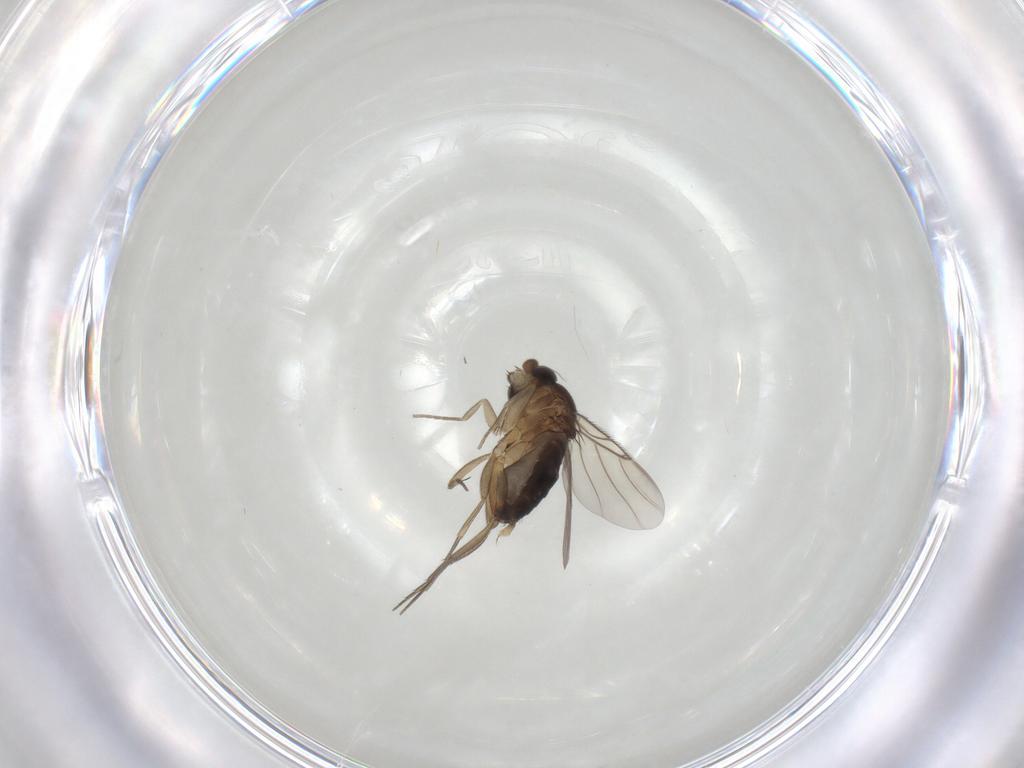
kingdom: Animalia
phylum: Arthropoda
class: Insecta
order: Diptera
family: Phoridae
